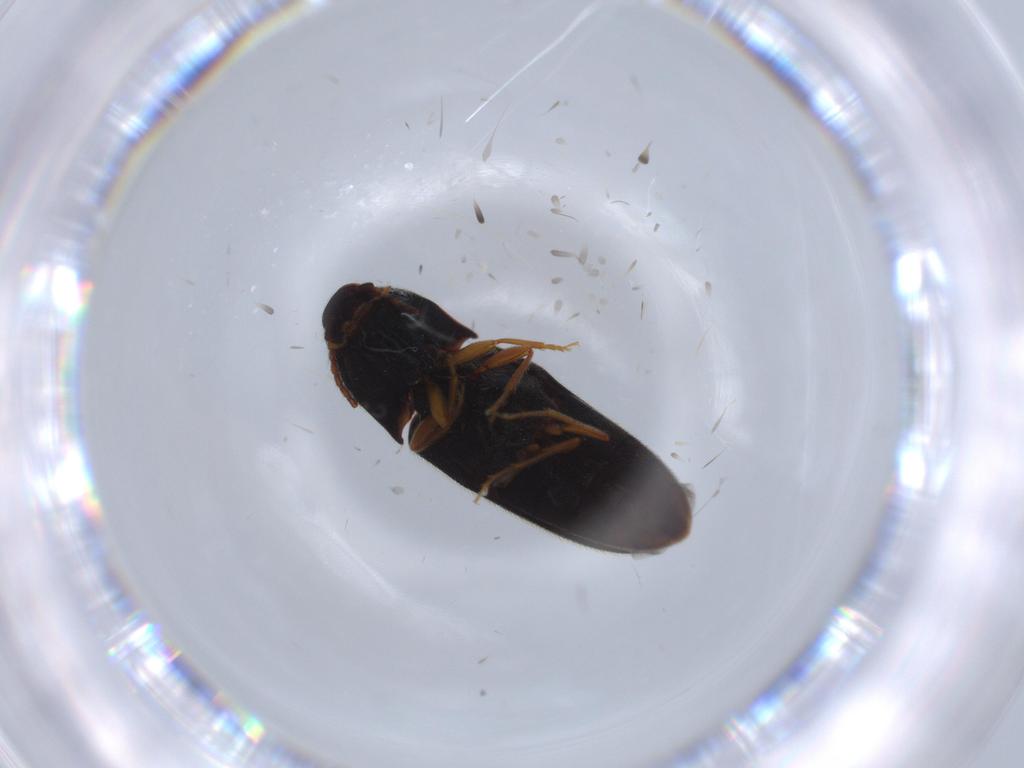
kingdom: Animalia
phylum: Arthropoda
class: Insecta
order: Coleoptera
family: Chrysomelidae
